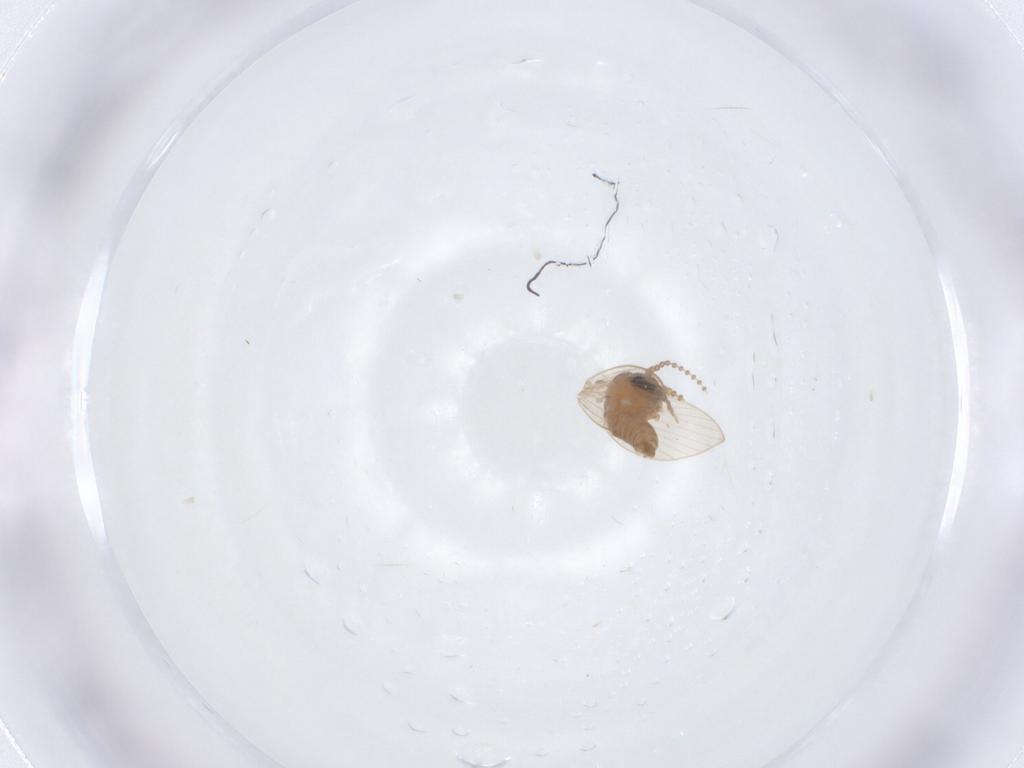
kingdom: Animalia
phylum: Arthropoda
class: Insecta
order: Diptera
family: Psychodidae
